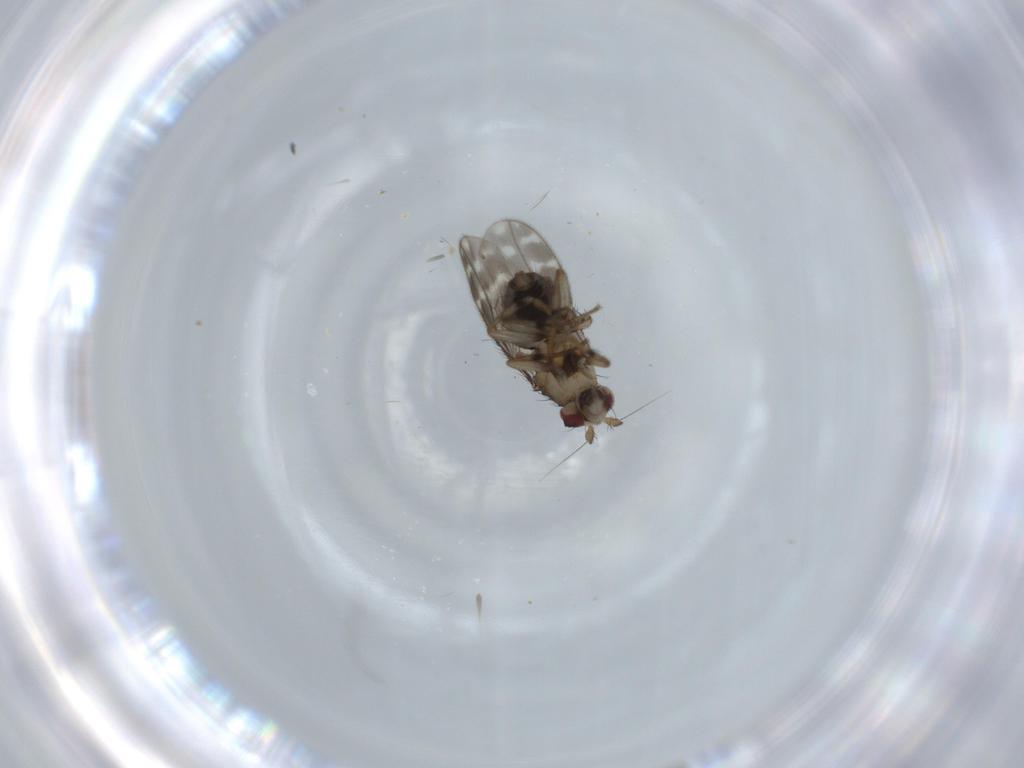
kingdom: Animalia
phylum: Arthropoda
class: Insecta
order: Diptera
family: Sphaeroceridae
